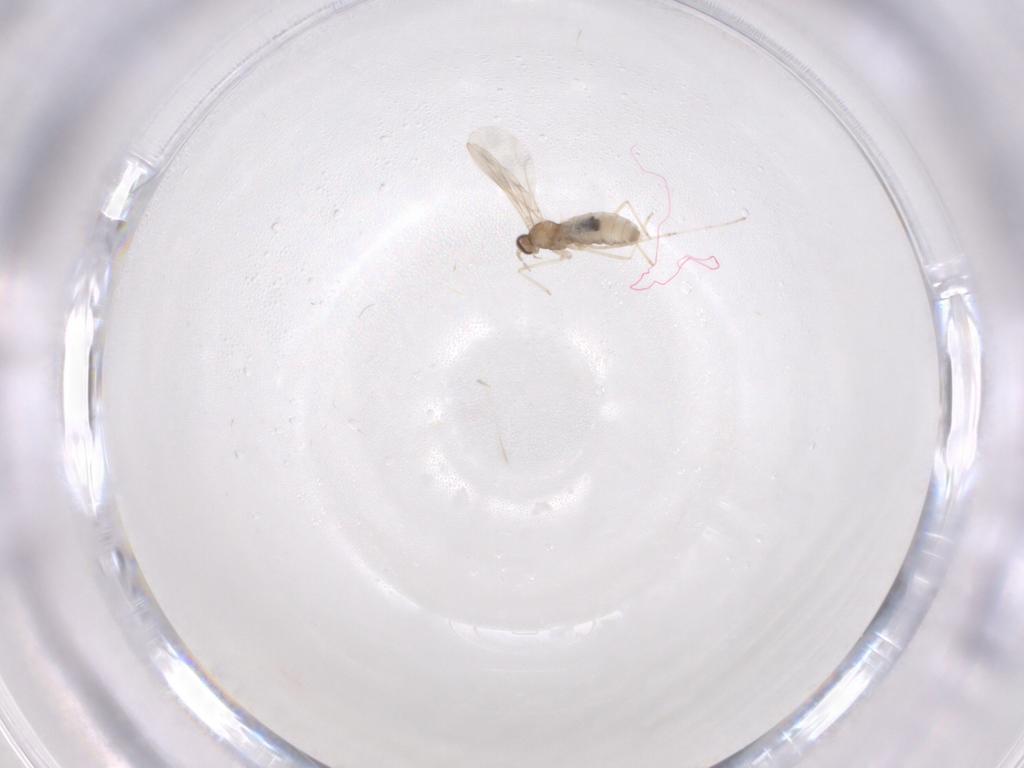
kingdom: Animalia
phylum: Arthropoda
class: Insecta
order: Diptera
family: Cecidomyiidae
